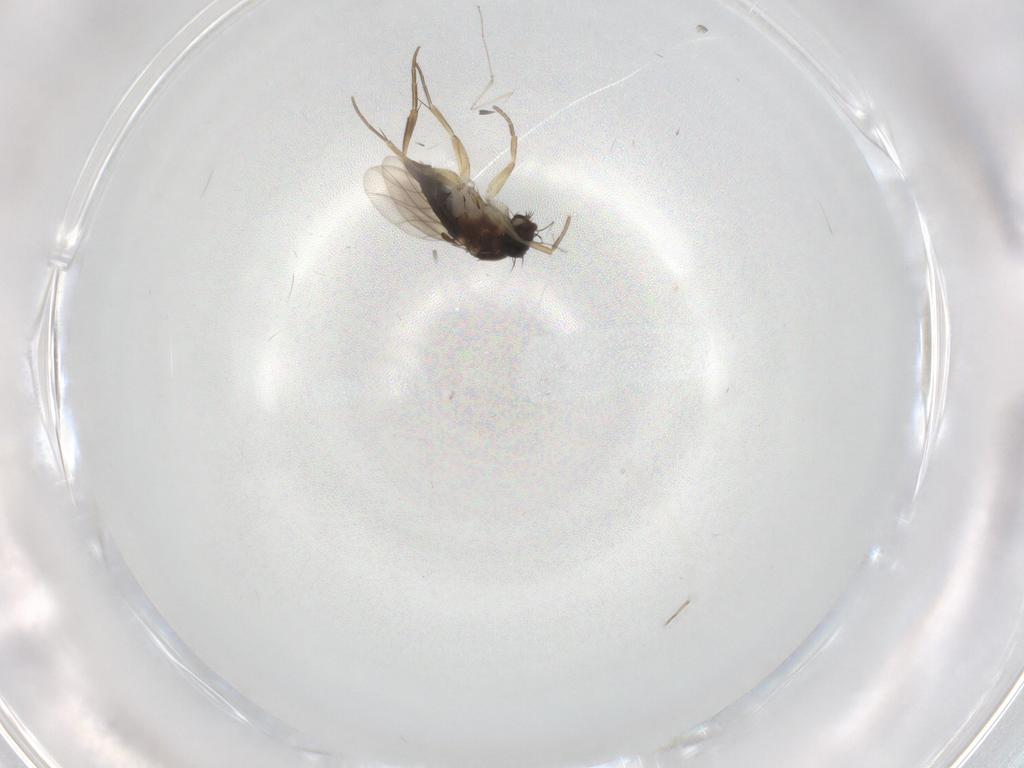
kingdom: Animalia
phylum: Arthropoda
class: Insecta
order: Diptera
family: Phoridae
